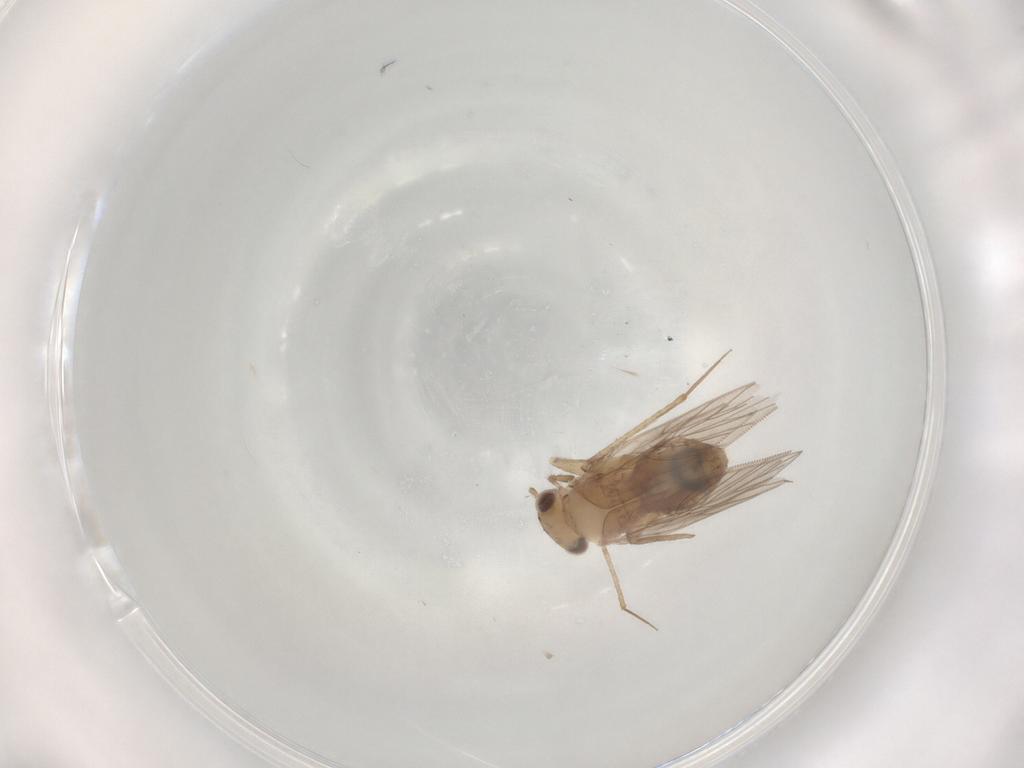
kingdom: Animalia
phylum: Arthropoda
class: Insecta
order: Psocodea
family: Lepidopsocidae
